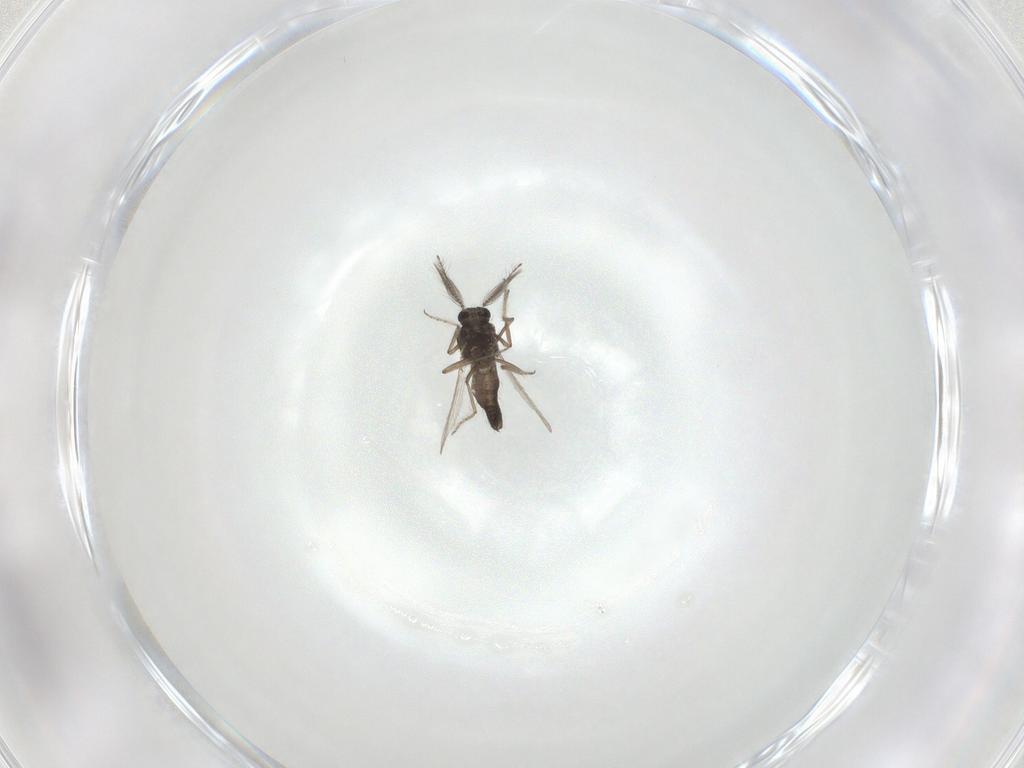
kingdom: Animalia
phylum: Arthropoda
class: Insecta
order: Diptera
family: Ceratopogonidae
